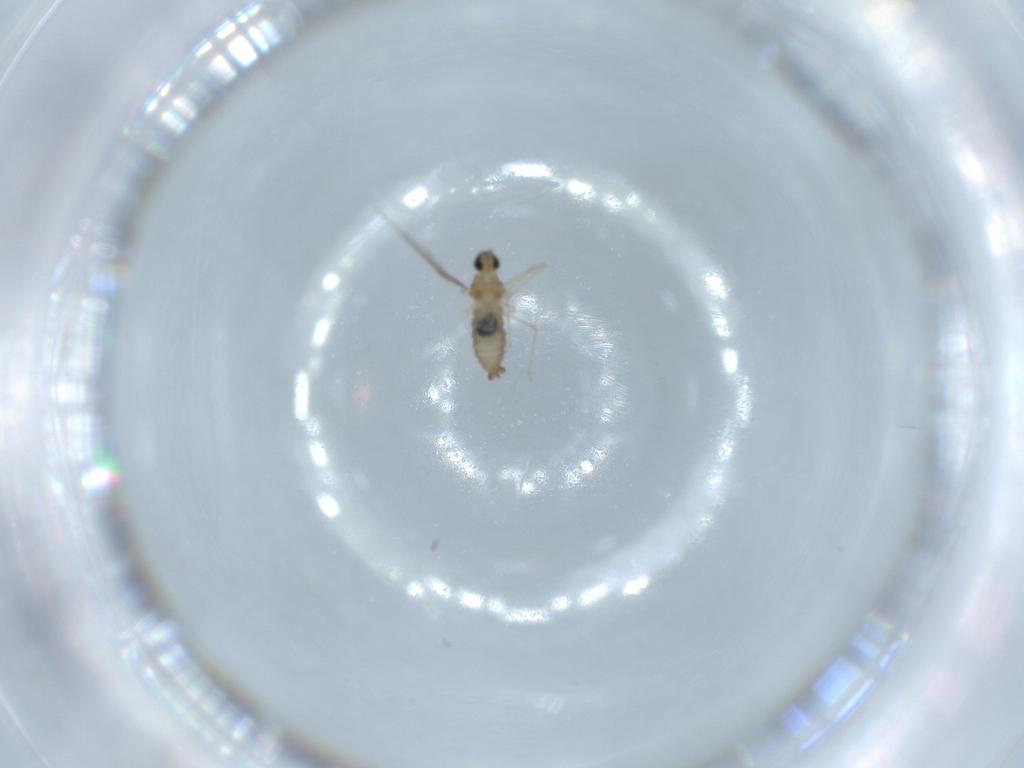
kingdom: Animalia
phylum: Arthropoda
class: Insecta
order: Diptera
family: Cecidomyiidae
